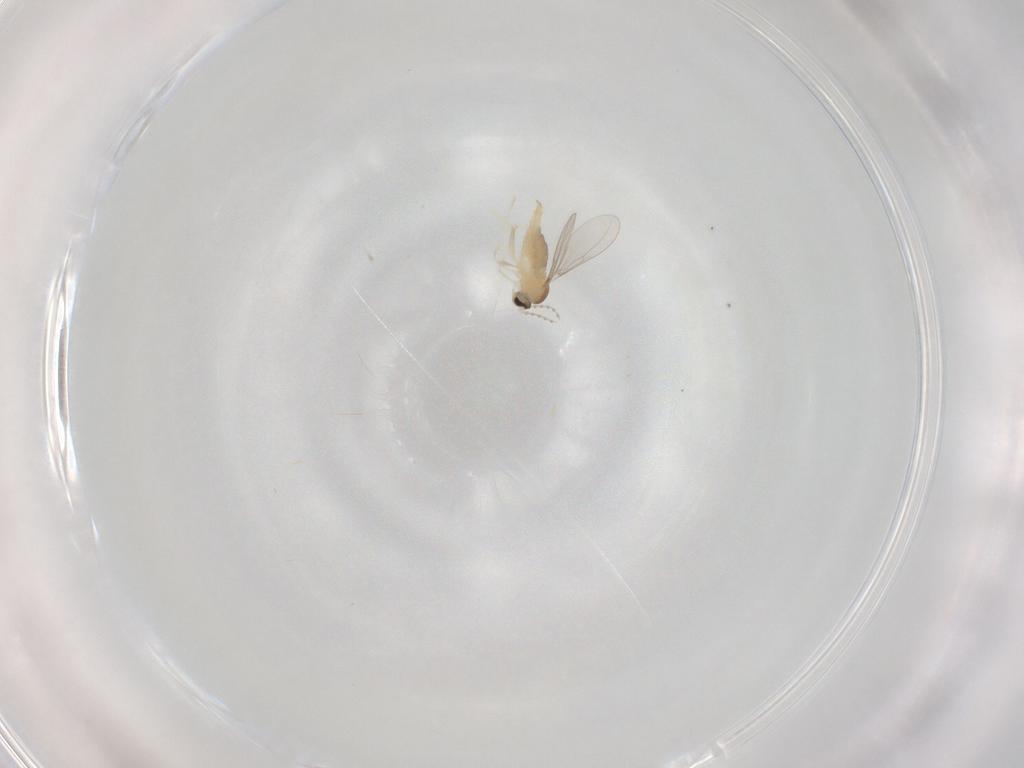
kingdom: Animalia
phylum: Arthropoda
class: Insecta
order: Diptera
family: Cecidomyiidae
